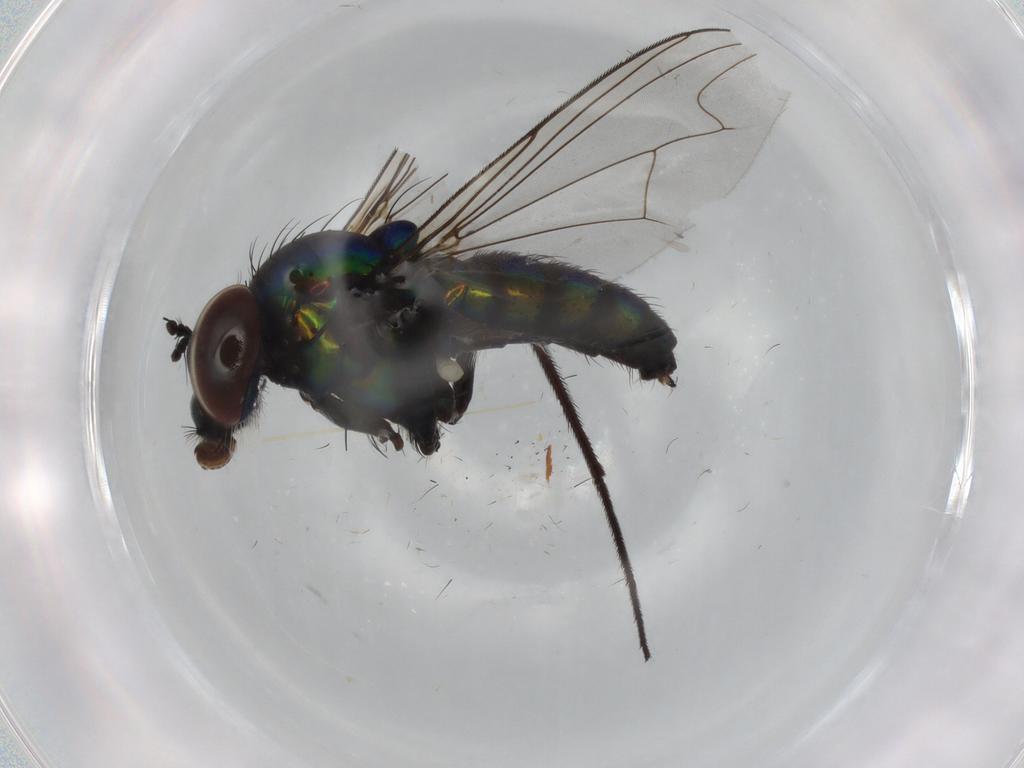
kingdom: Animalia
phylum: Arthropoda
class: Insecta
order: Diptera
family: Dolichopodidae
